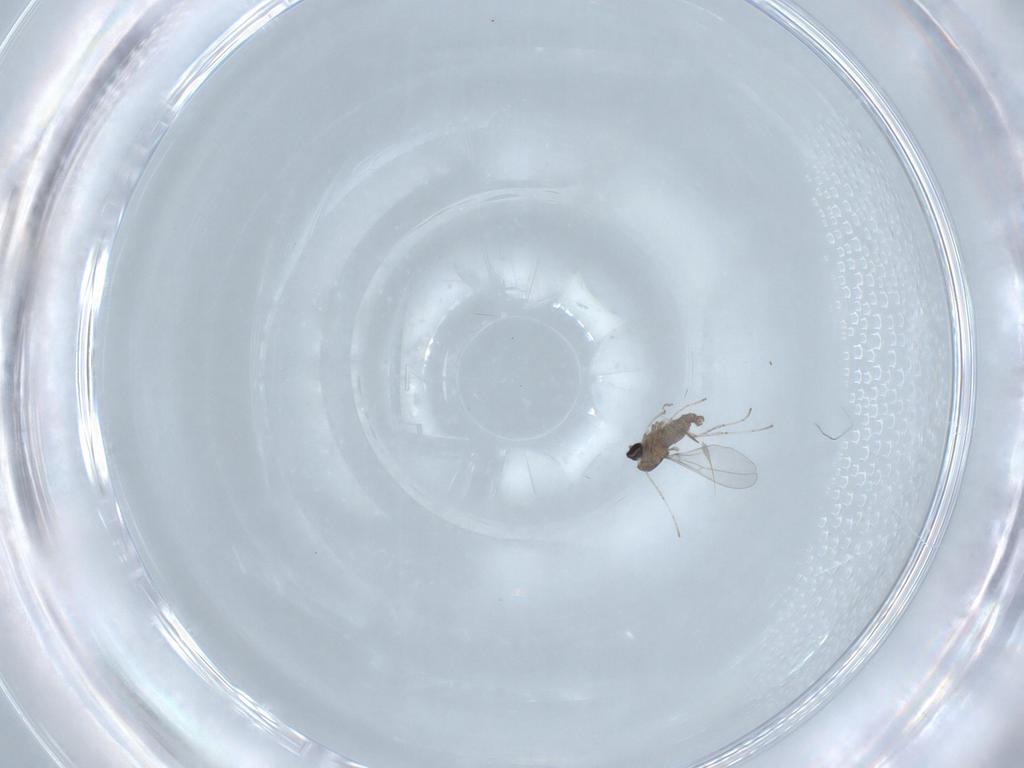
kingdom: Animalia
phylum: Arthropoda
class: Insecta
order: Diptera
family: Cecidomyiidae
